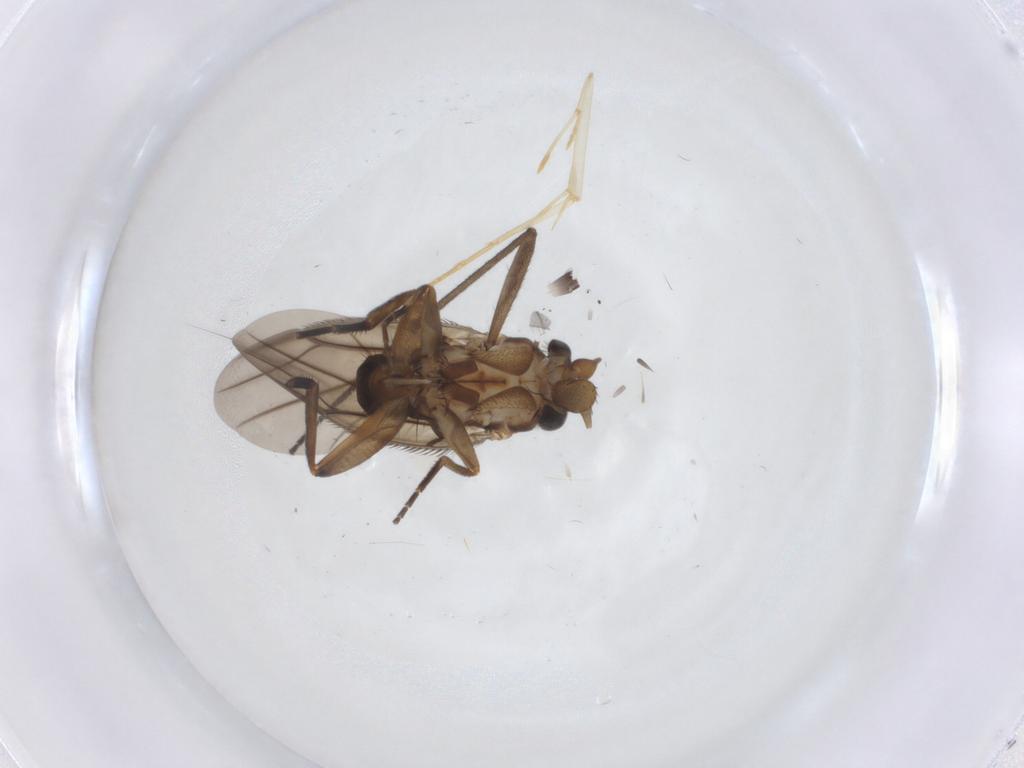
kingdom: Animalia
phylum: Arthropoda
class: Insecta
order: Diptera
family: Sciaridae
